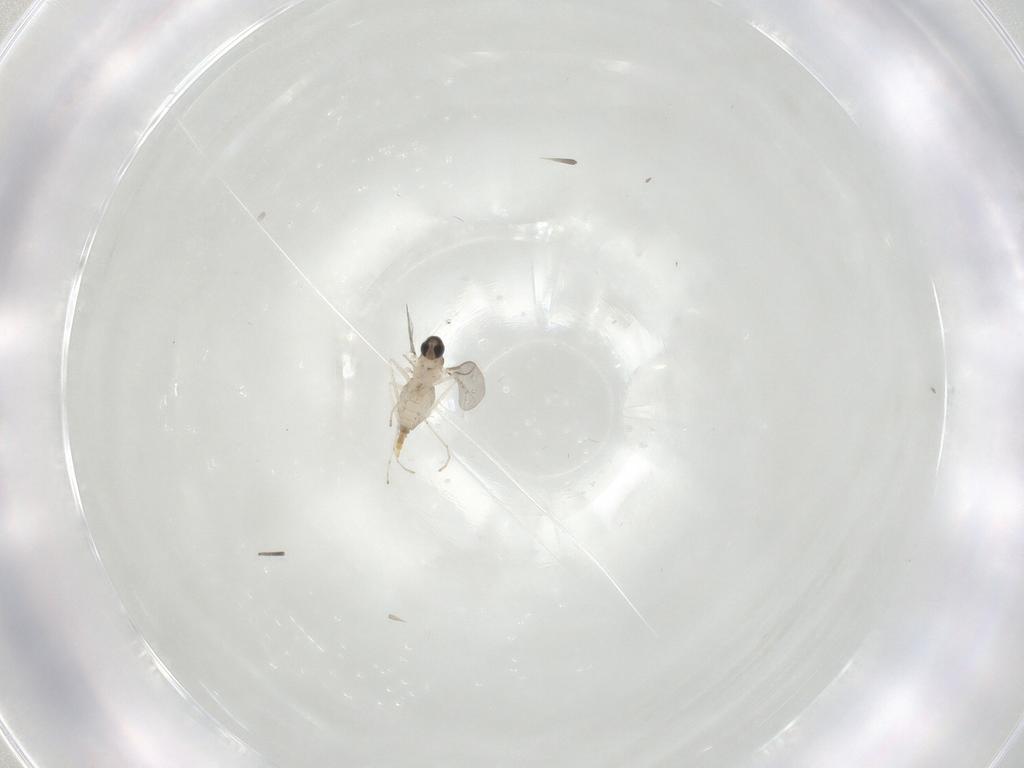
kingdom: Animalia
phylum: Arthropoda
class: Insecta
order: Diptera
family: Cecidomyiidae
